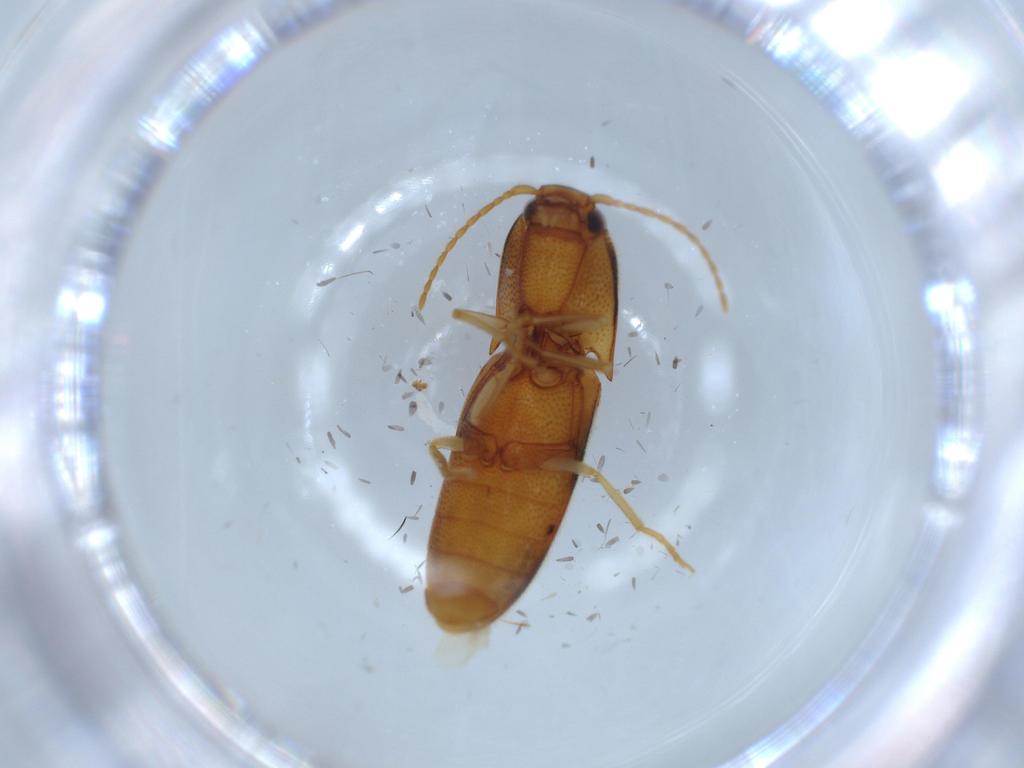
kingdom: Animalia
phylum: Arthropoda
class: Insecta
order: Coleoptera
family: Elateridae
